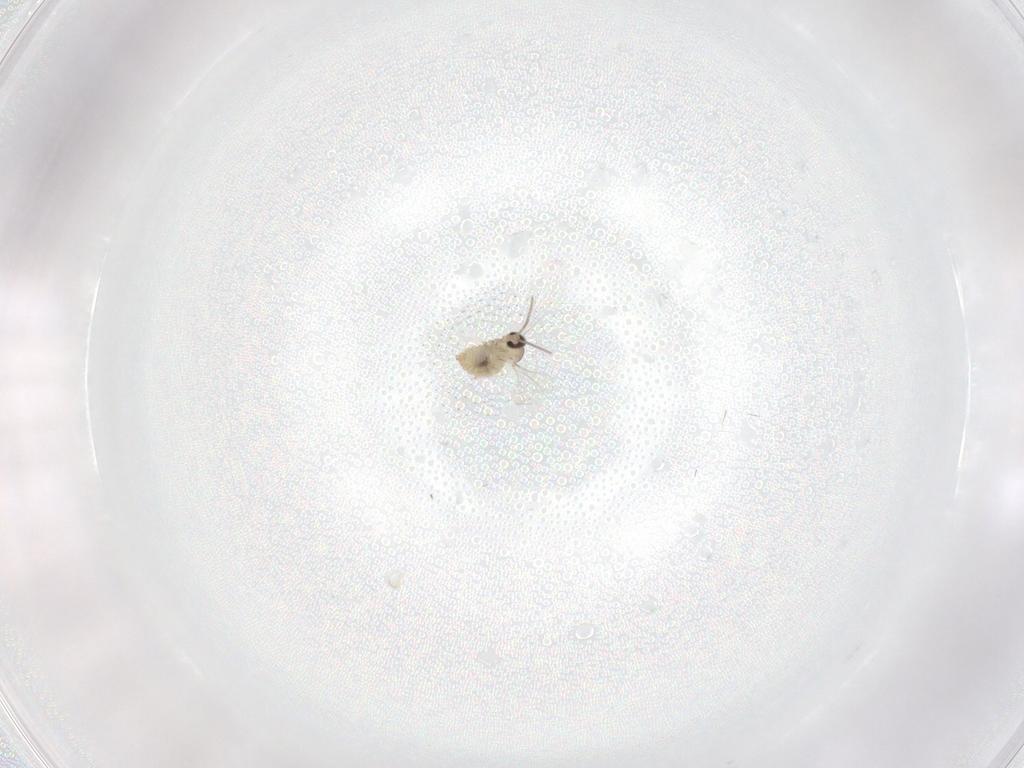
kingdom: Animalia
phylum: Arthropoda
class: Insecta
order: Diptera
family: Cecidomyiidae
